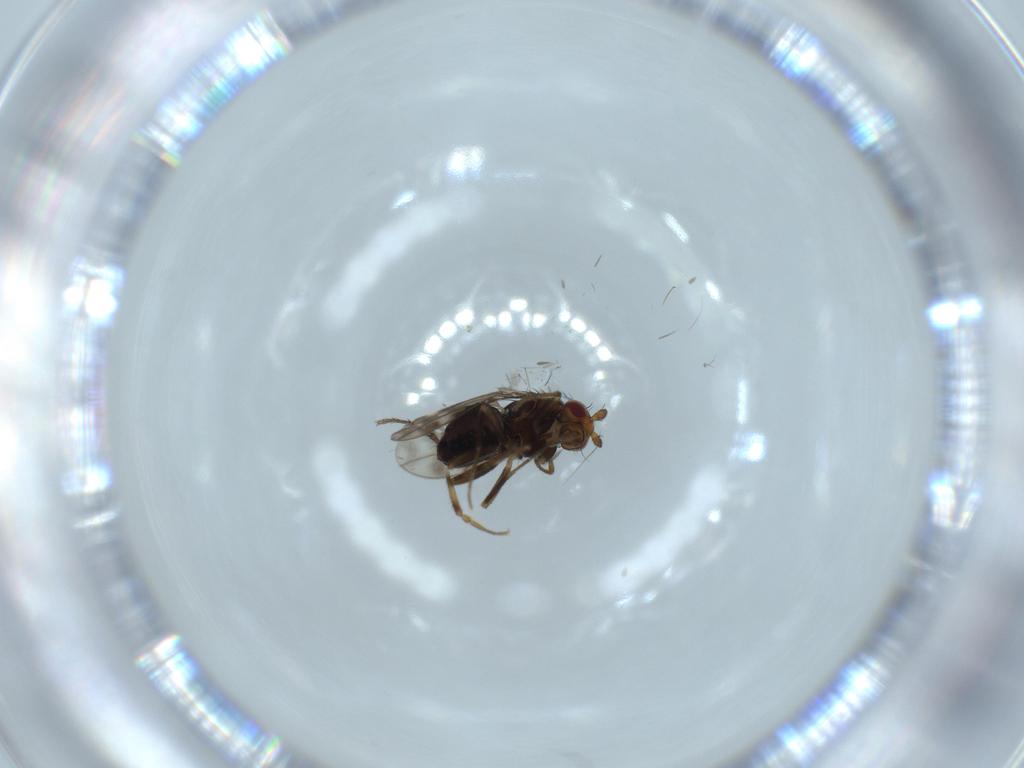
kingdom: Animalia
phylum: Arthropoda
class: Insecta
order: Diptera
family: Sphaeroceridae
